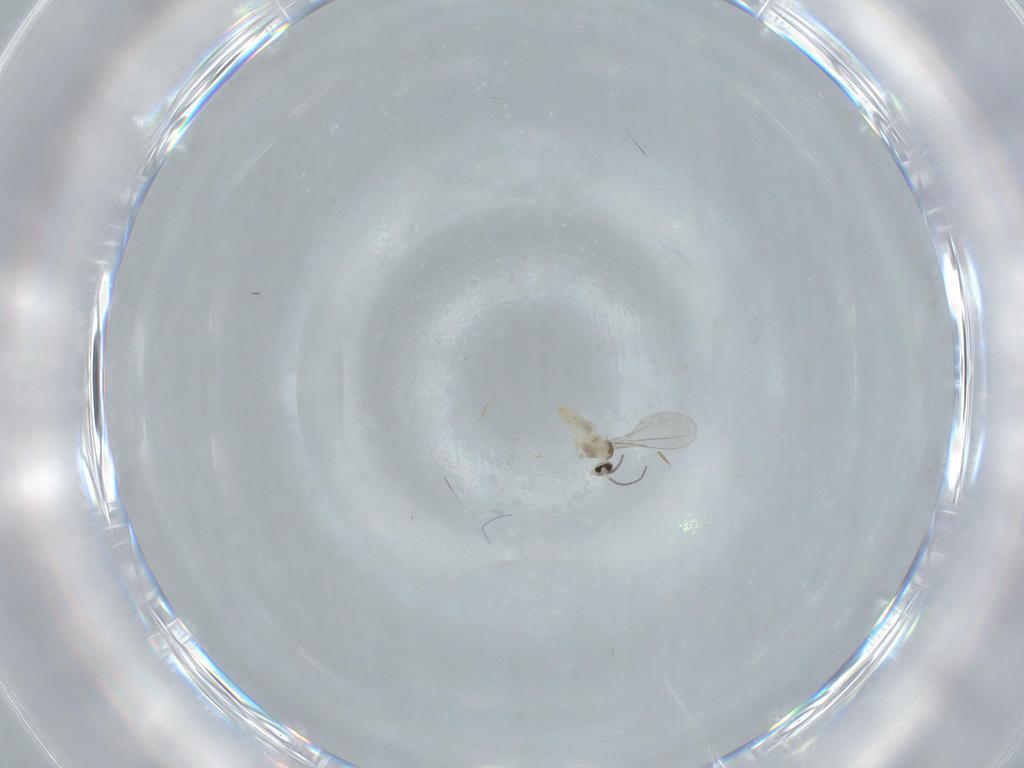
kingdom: Animalia
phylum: Arthropoda
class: Insecta
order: Diptera
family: Cecidomyiidae
